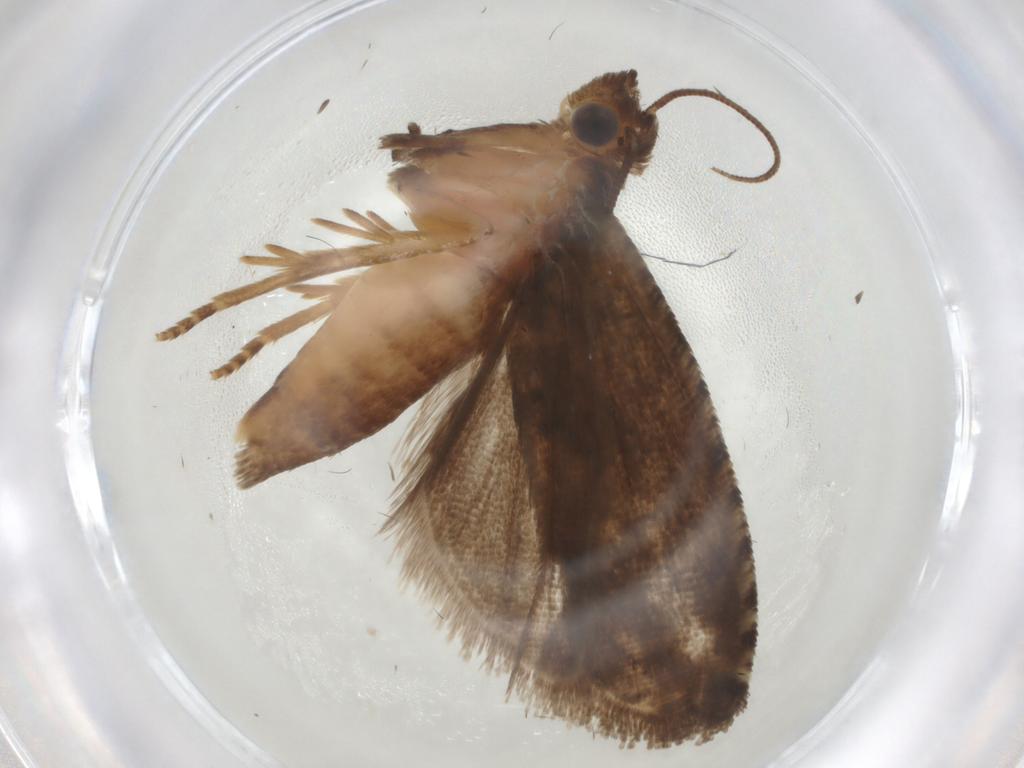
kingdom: Animalia
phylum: Arthropoda
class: Insecta
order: Lepidoptera
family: Tortricidae
